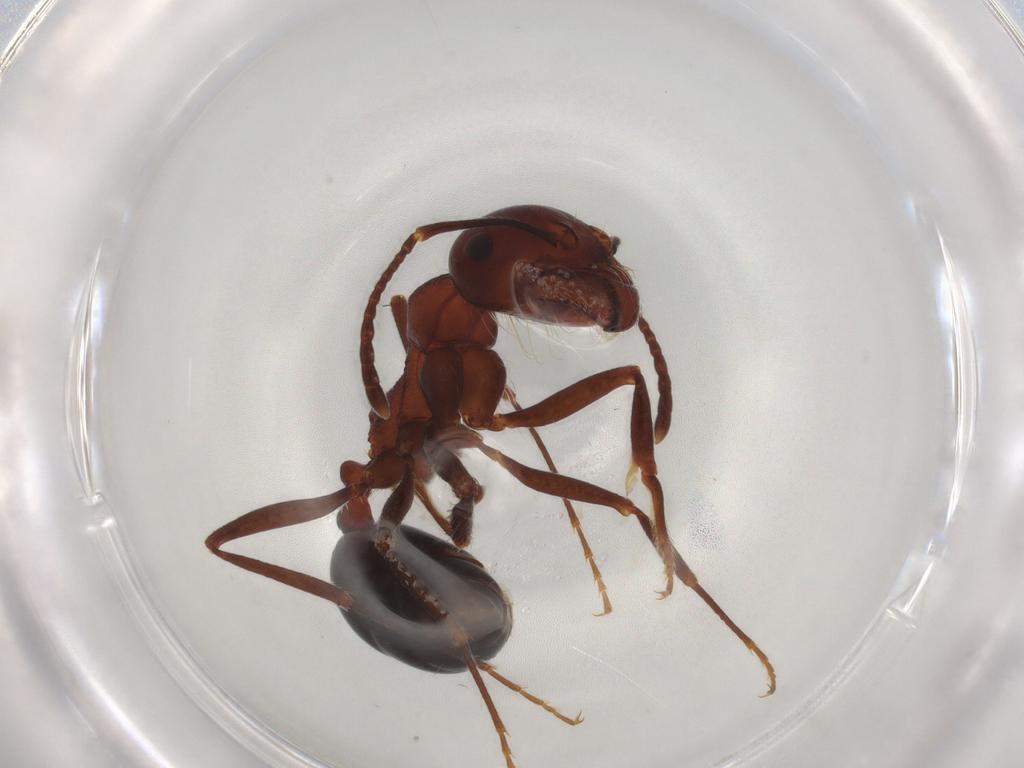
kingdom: Animalia
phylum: Arthropoda
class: Insecta
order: Hymenoptera
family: Formicidae
